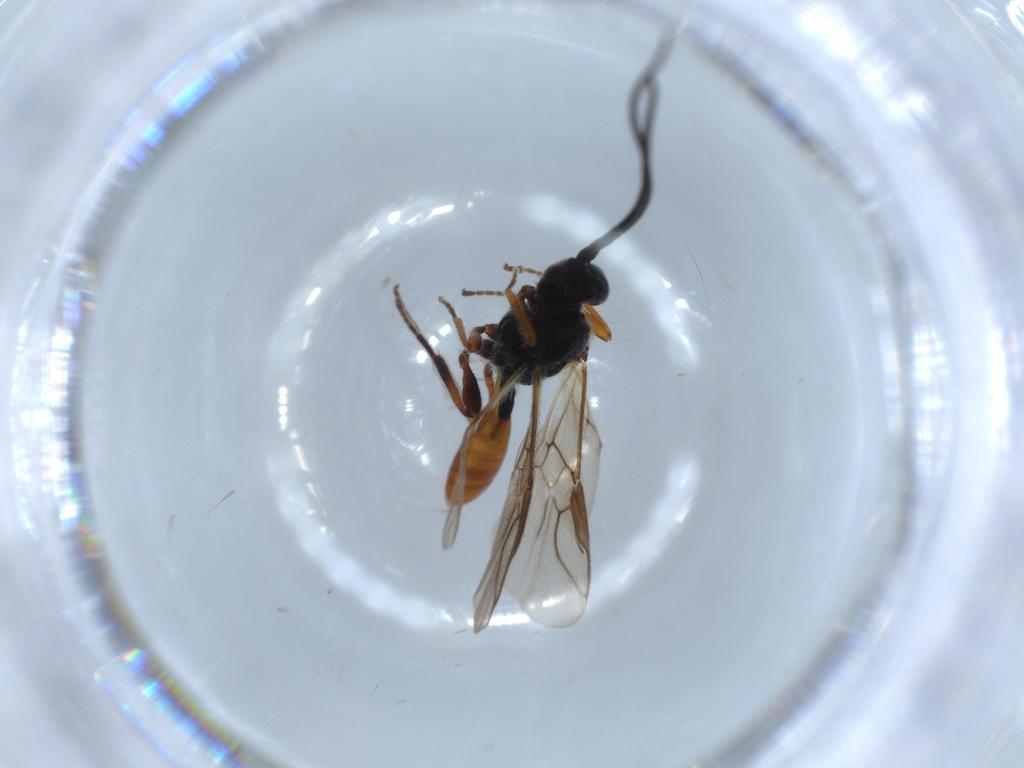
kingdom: Animalia
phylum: Arthropoda
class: Insecta
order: Hymenoptera
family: Braconidae
